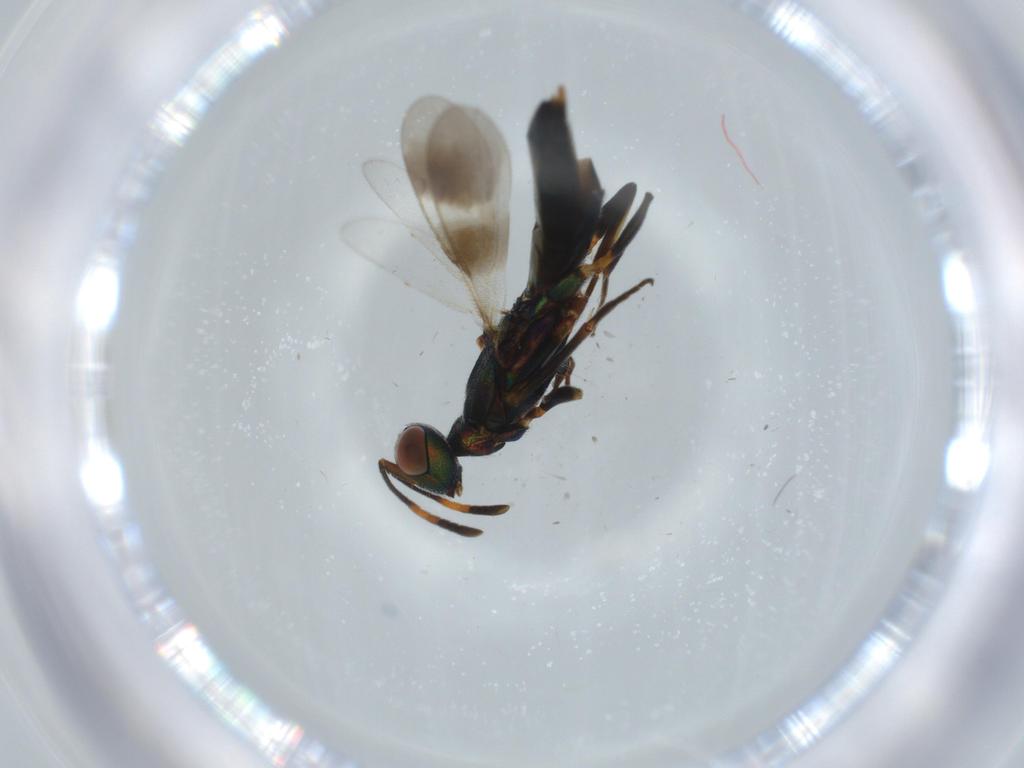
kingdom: Animalia
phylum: Arthropoda
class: Insecta
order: Hymenoptera
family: Eupelmidae
